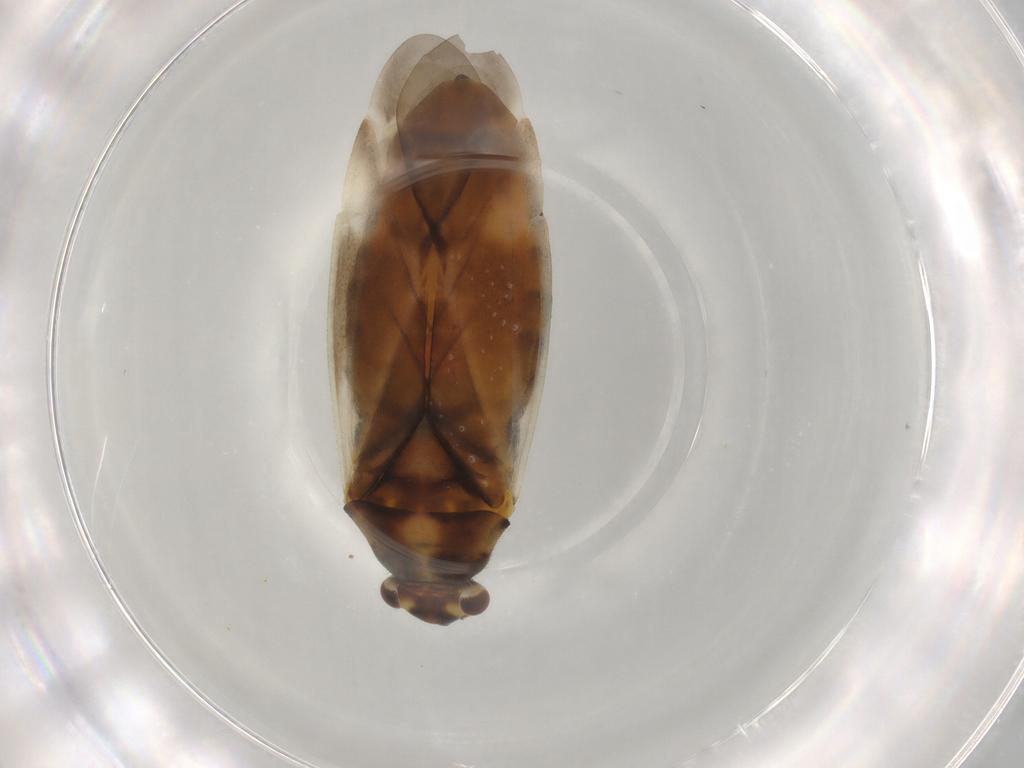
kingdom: Animalia
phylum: Arthropoda
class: Insecta
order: Hemiptera
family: Miridae
